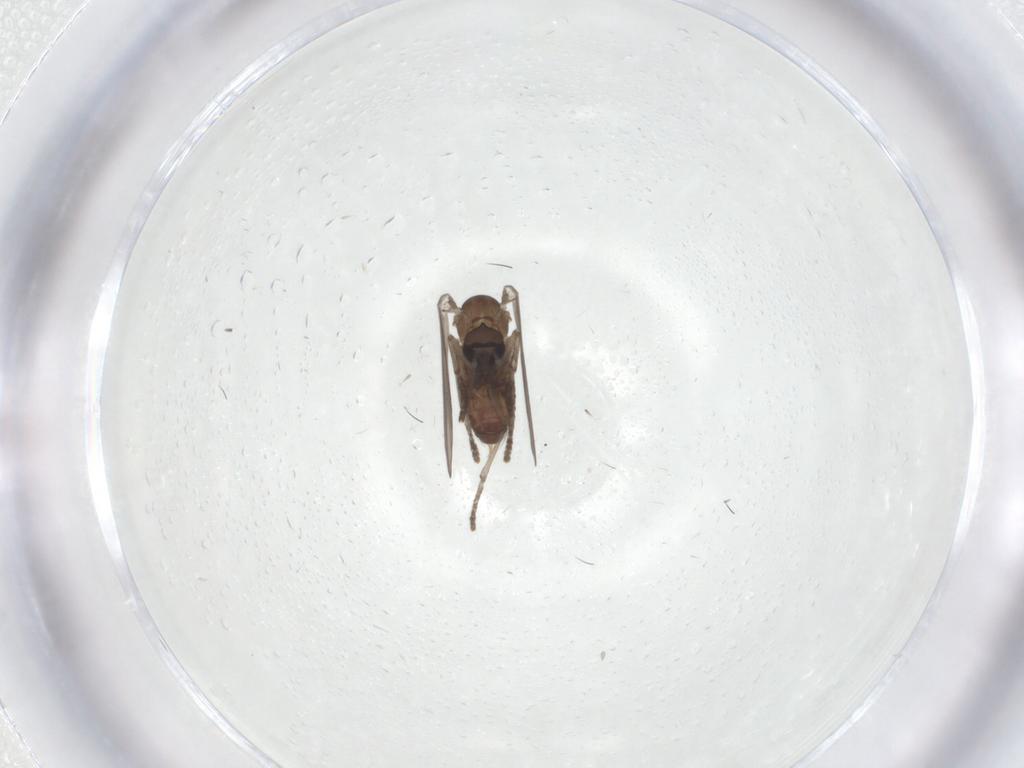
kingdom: Animalia
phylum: Arthropoda
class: Insecta
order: Diptera
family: Psychodidae
